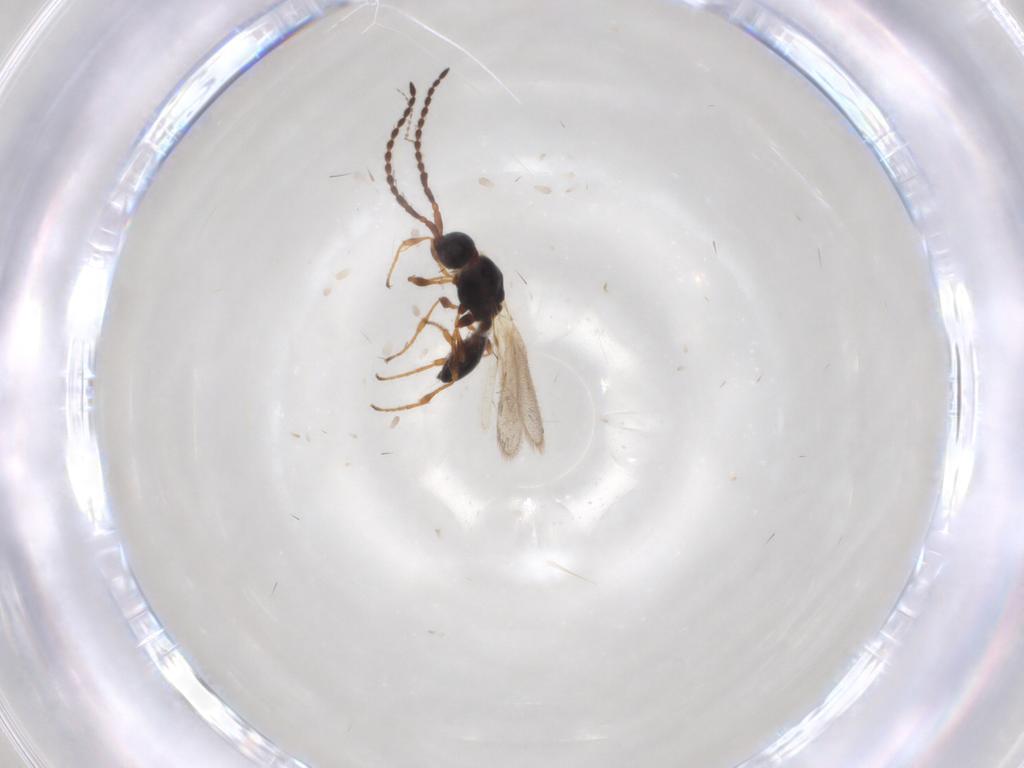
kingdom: Animalia
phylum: Arthropoda
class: Insecta
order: Hymenoptera
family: Diapriidae
